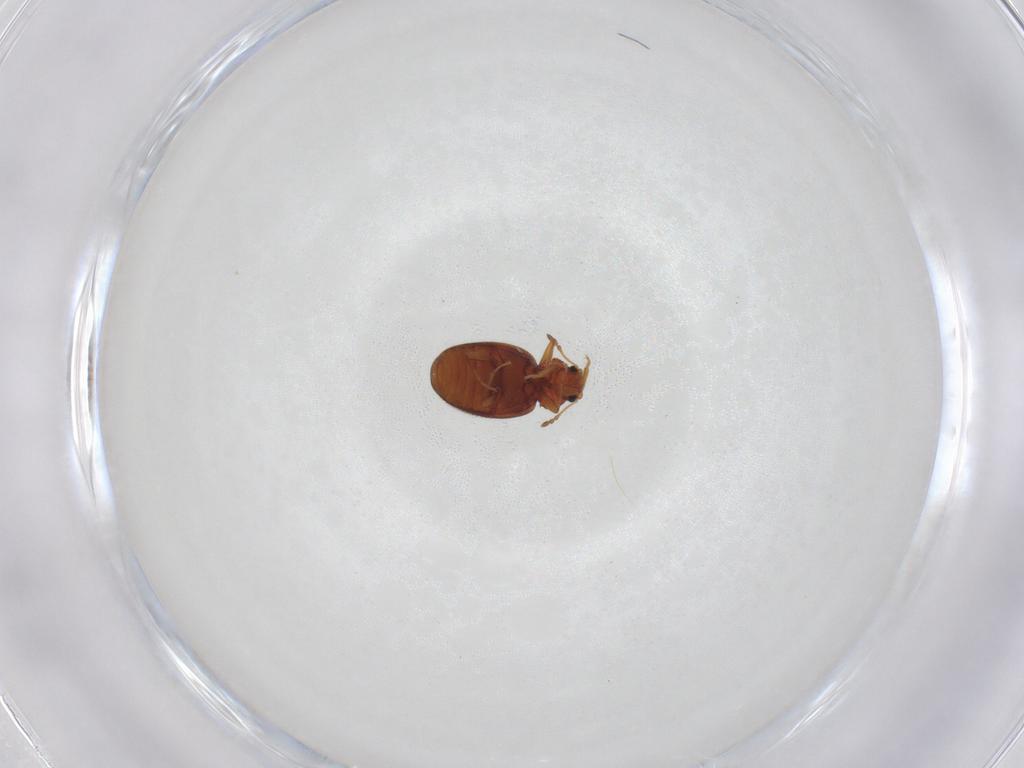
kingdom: Animalia
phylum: Arthropoda
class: Insecta
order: Coleoptera
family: Latridiidae
